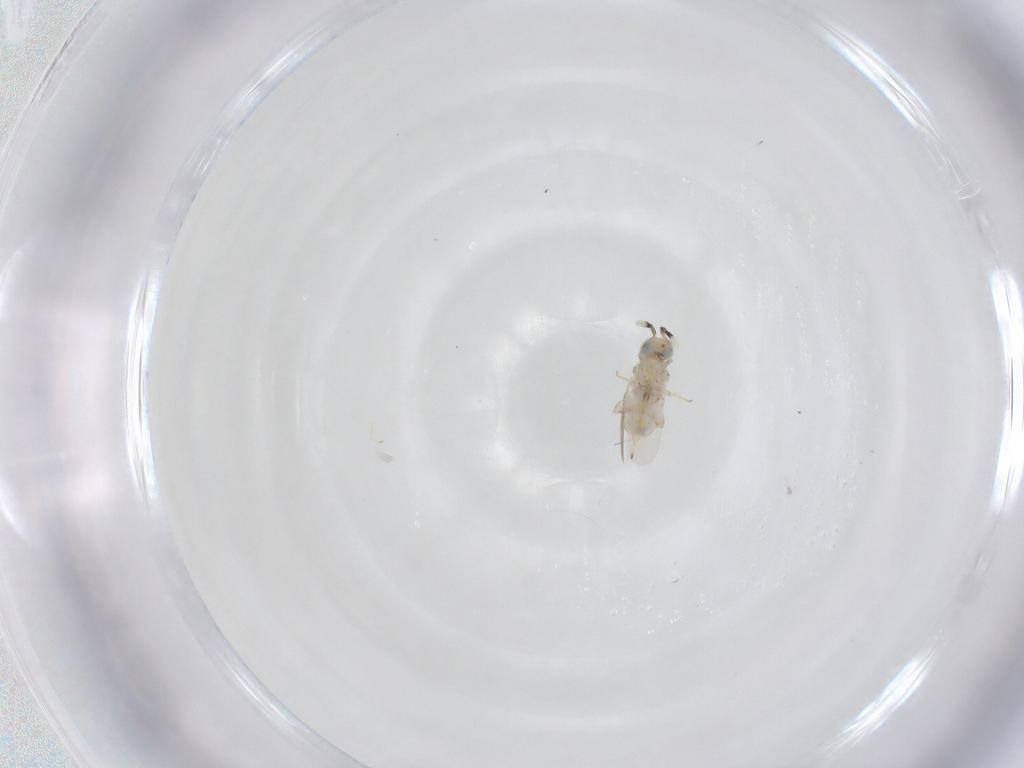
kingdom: Animalia
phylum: Arthropoda
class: Insecta
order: Hymenoptera
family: Encyrtidae
